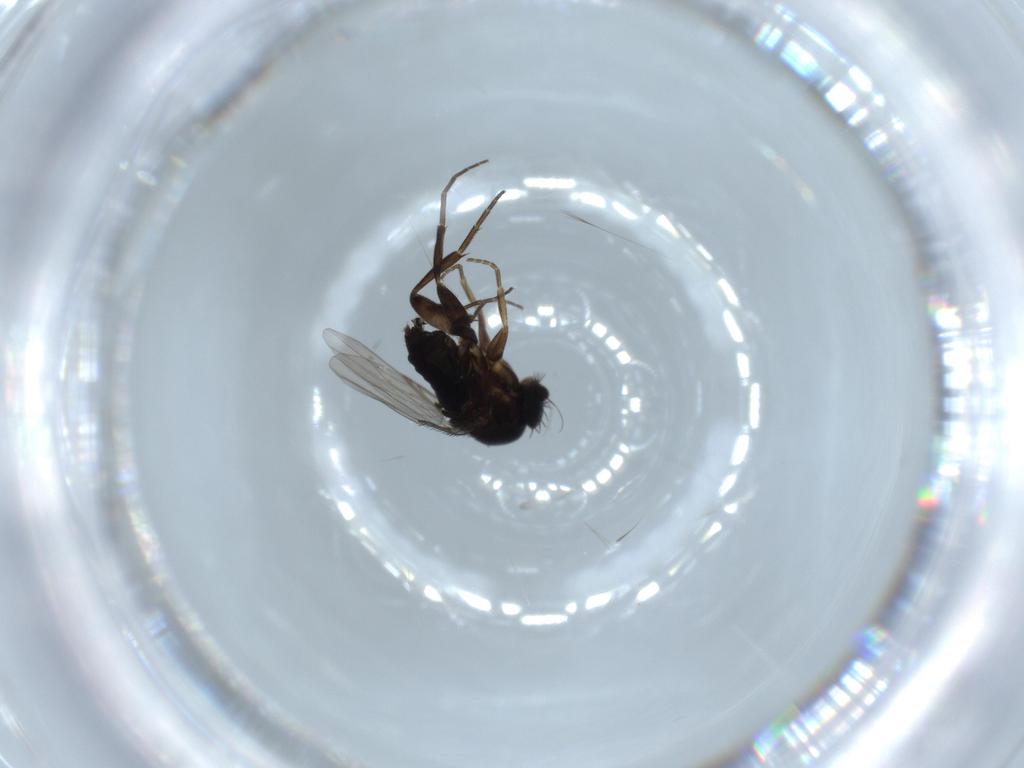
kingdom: Animalia
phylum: Arthropoda
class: Insecta
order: Diptera
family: Phoridae
